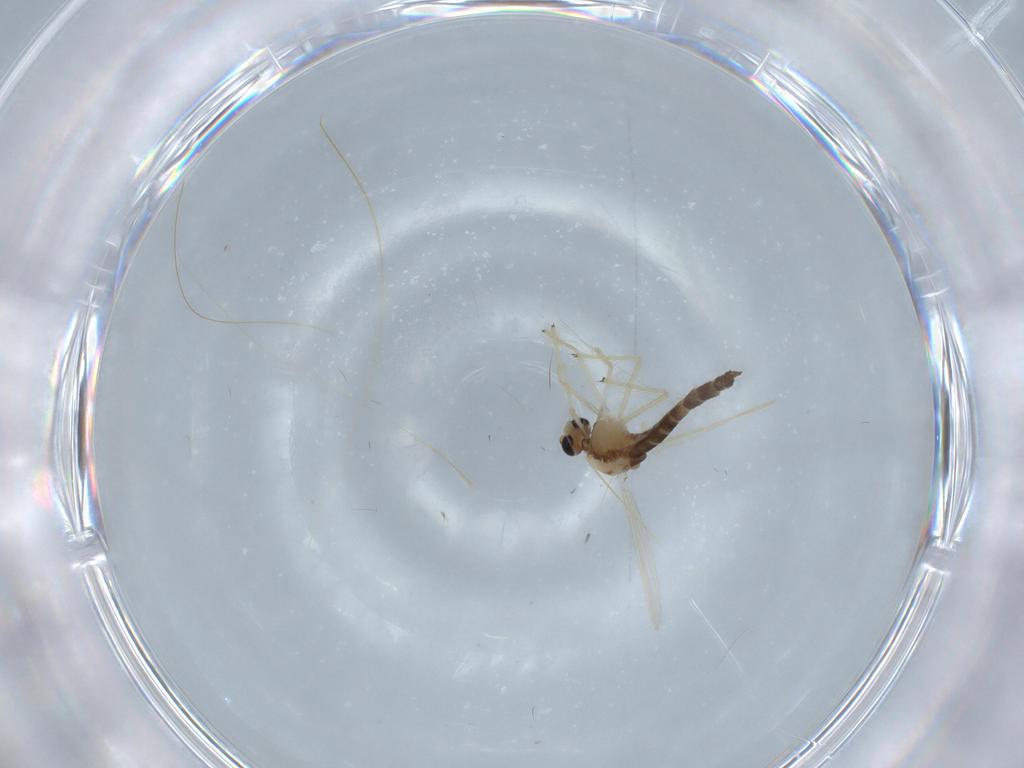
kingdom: Animalia
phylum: Arthropoda
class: Insecta
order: Diptera
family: Chironomidae
